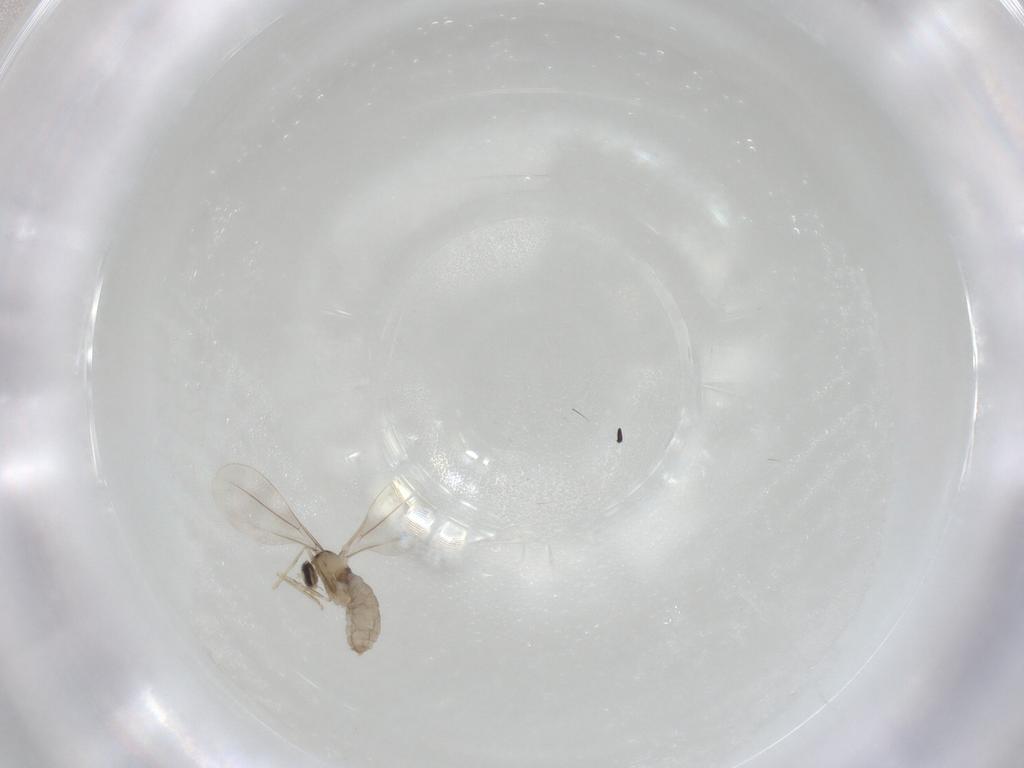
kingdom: Animalia
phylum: Arthropoda
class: Insecta
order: Diptera
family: Cecidomyiidae
